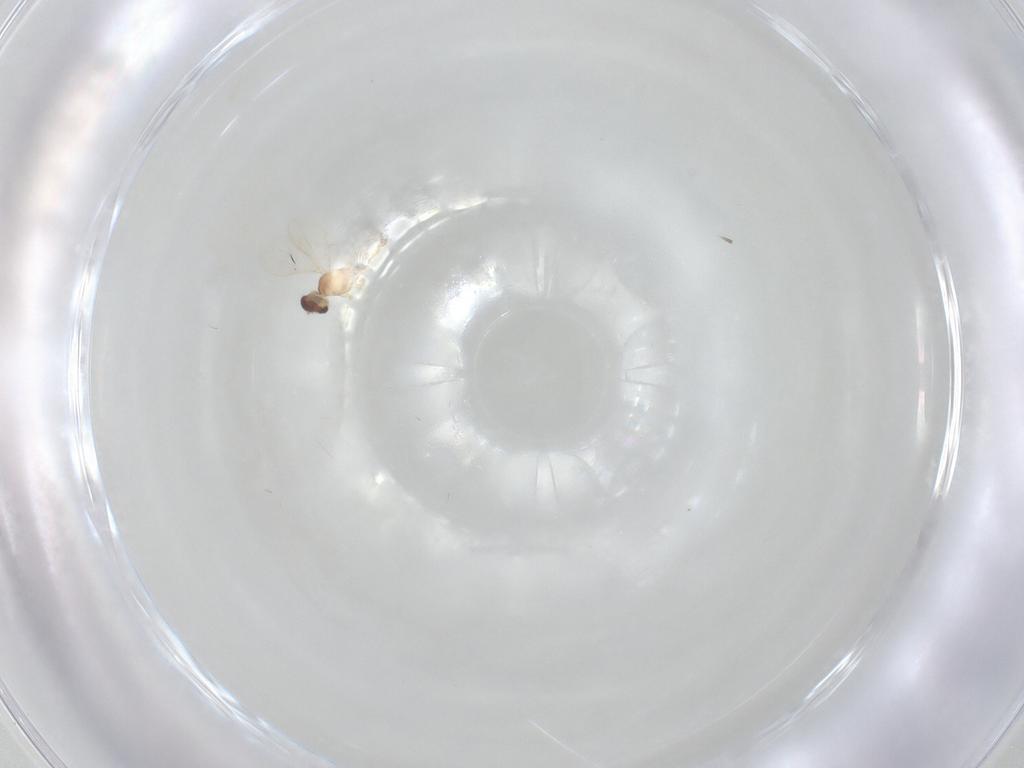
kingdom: Animalia
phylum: Arthropoda
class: Insecta
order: Diptera
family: Cecidomyiidae
